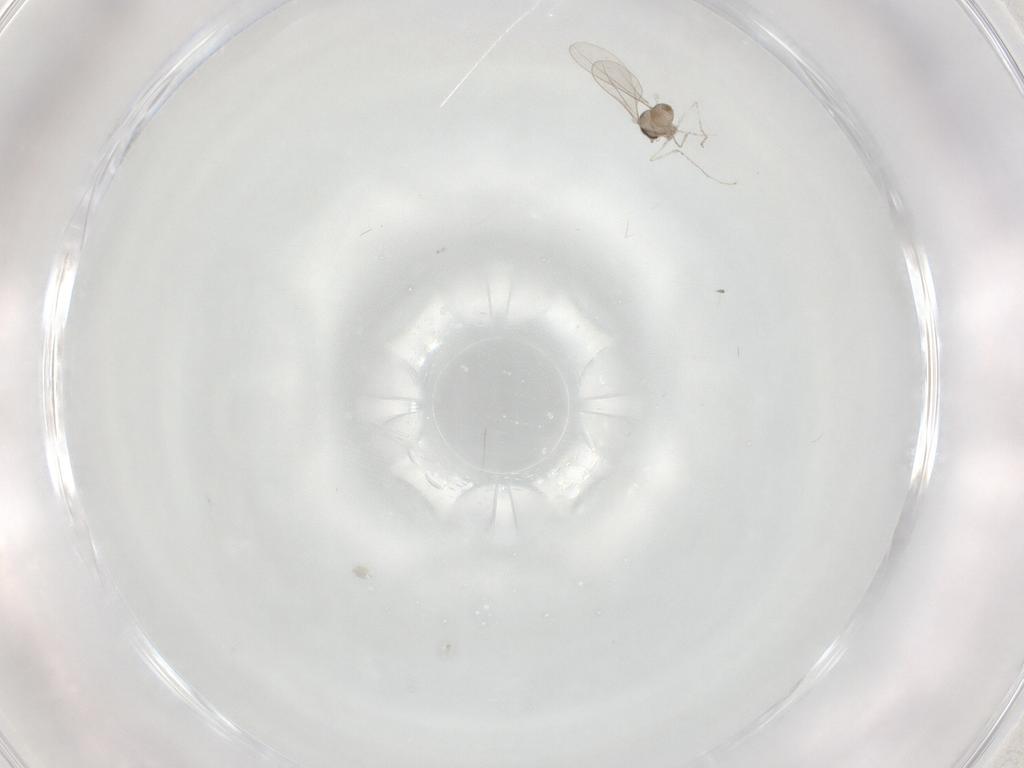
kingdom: Animalia
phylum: Arthropoda
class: Insecta
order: Diptera
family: Cecidomyiidae
